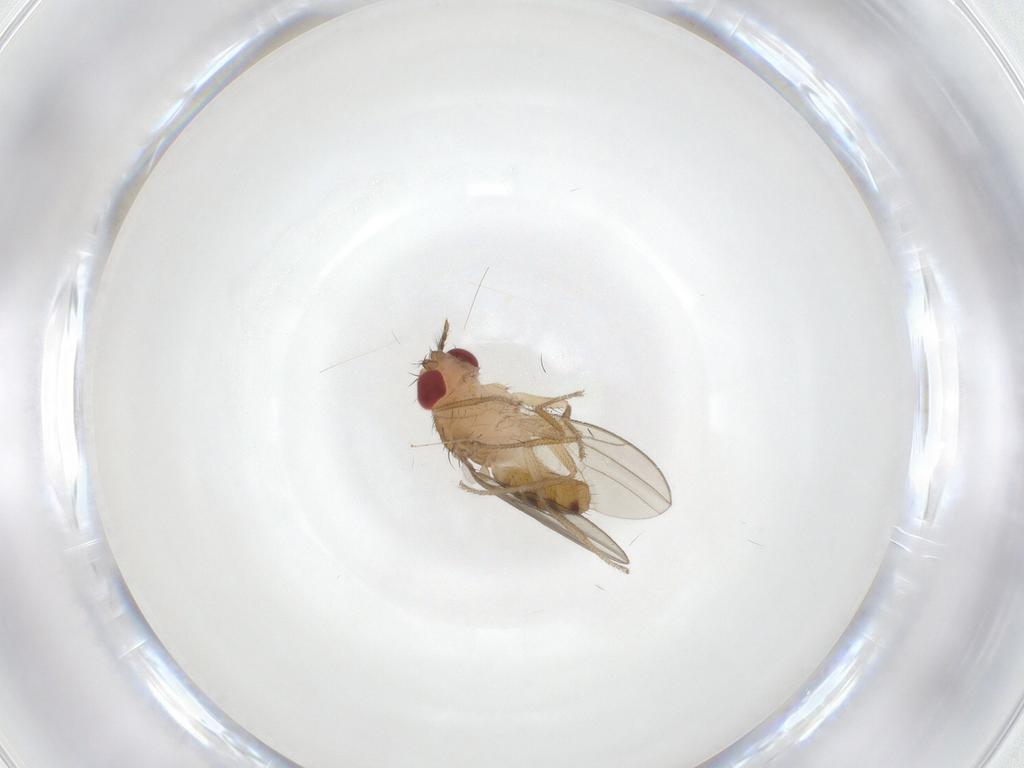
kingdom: Animalia
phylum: Arthropoda
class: Insecta
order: Diptera
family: Drosophilidae
